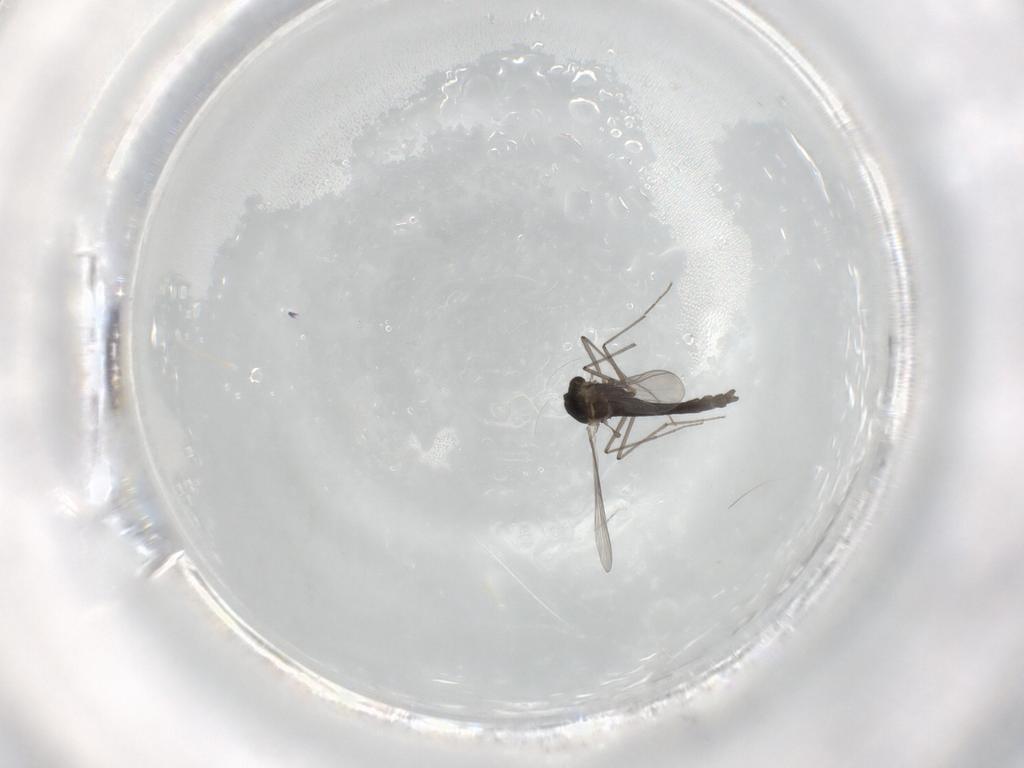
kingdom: Animalia
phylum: Arthropoda
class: Insecta
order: Diptera
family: Chironomidae
